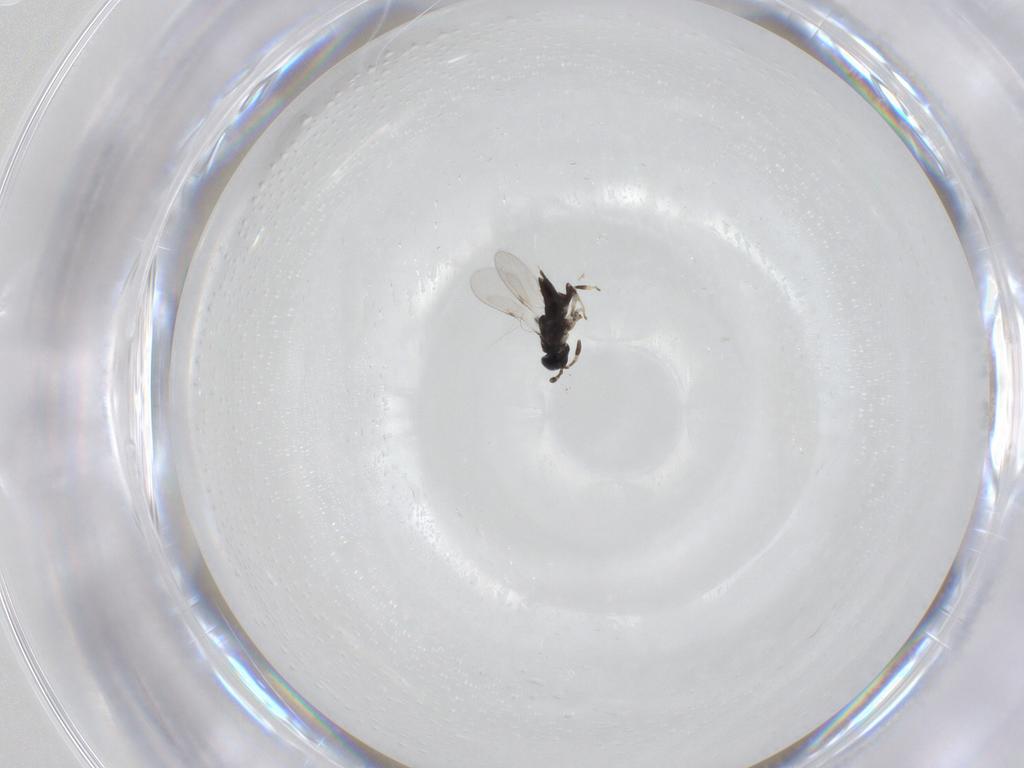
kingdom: Animalia
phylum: Arthropoda
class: Insecta
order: Hymenoptera
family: Encyrtidae
